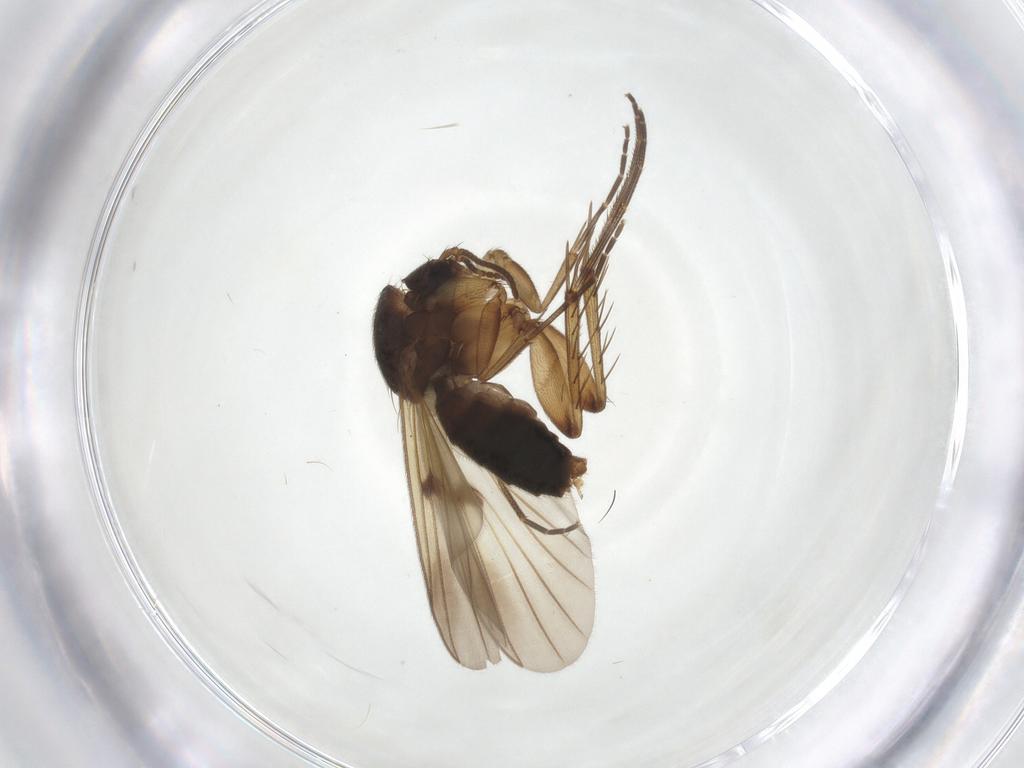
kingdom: Animalia
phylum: Arthropoda
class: Insecta
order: Diptera
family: Mycetophilidae
